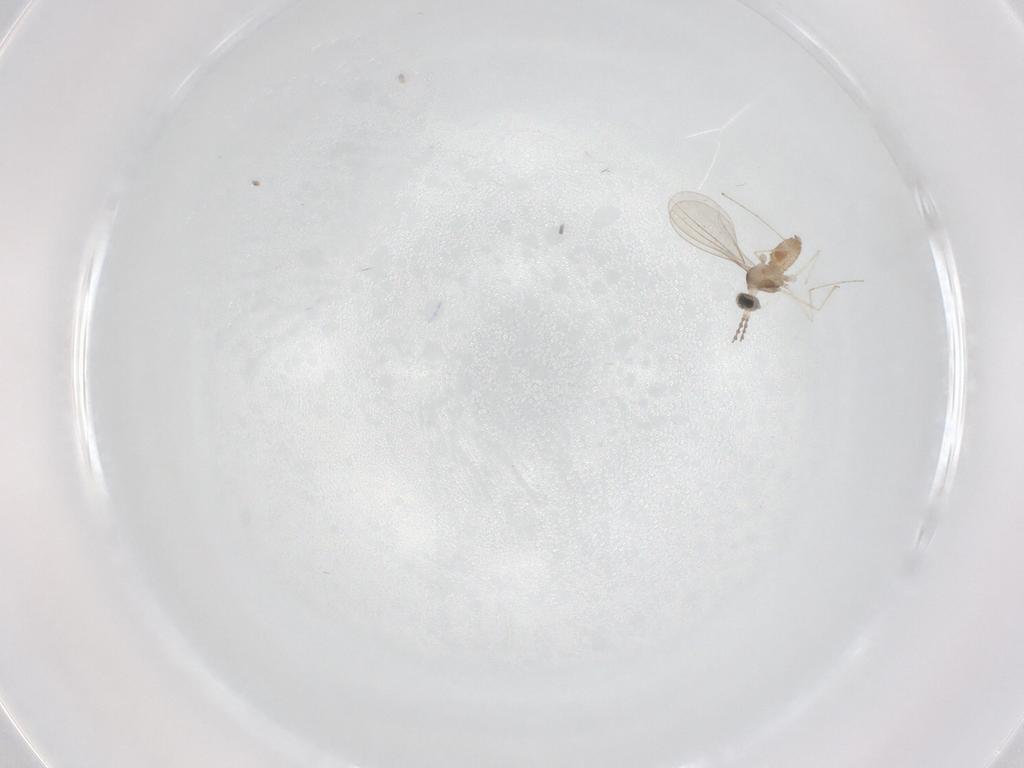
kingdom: Animalia
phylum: Arthropoda
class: Insecta
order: Diptera
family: Cecidomyiidae
